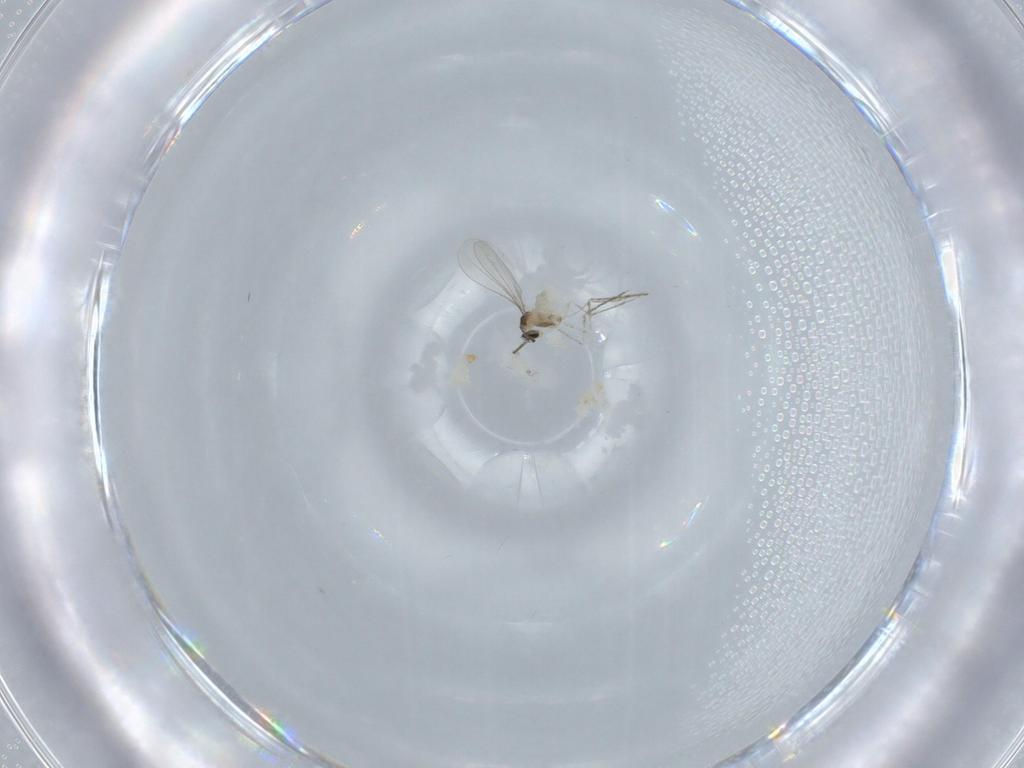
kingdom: Animalia
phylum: Arthropoda
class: Insecta
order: Diptera
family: Cecidomyiidae
